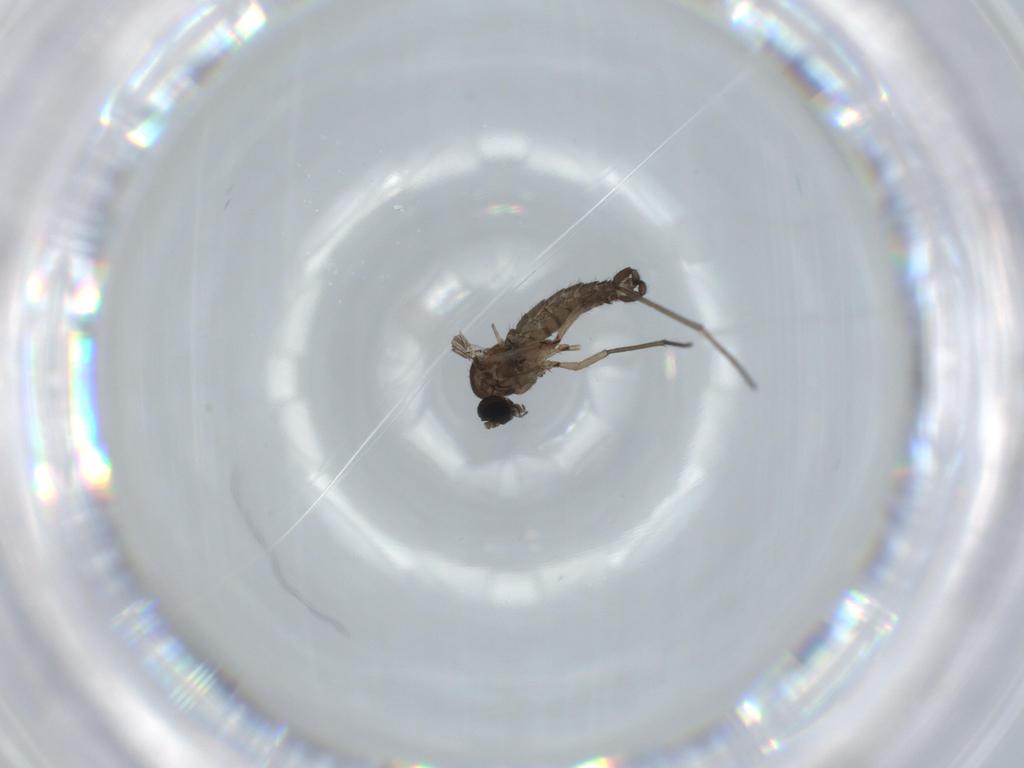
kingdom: Animalia
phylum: Arthropoda
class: Insecta
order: Diptera
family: Sciaridae
